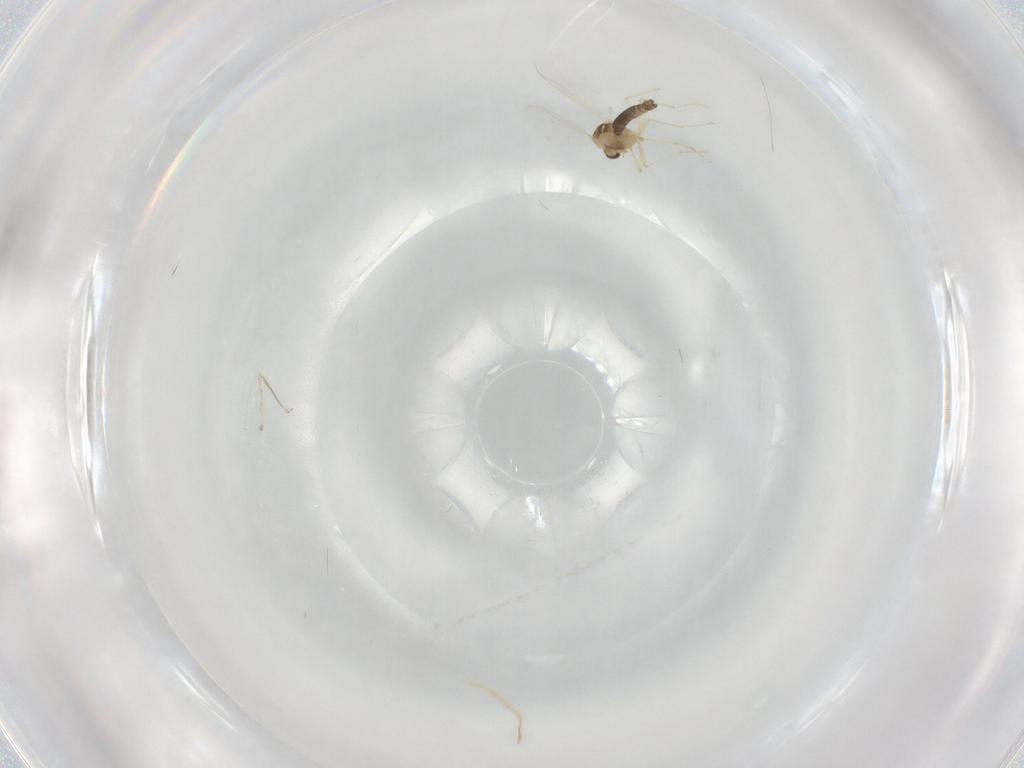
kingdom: Animalia
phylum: Arthropoda
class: Insecta
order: Diptera
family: Chironomidae
